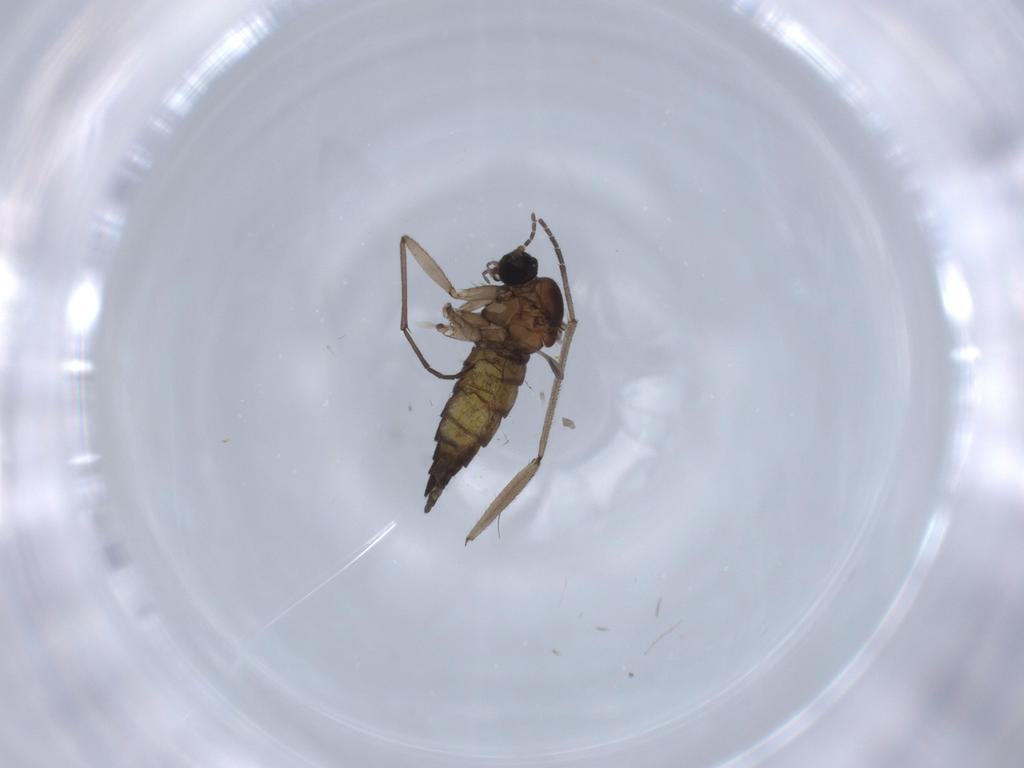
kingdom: Animalia
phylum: Arthropoda
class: Insecta
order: Diptera
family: Sciaridae
